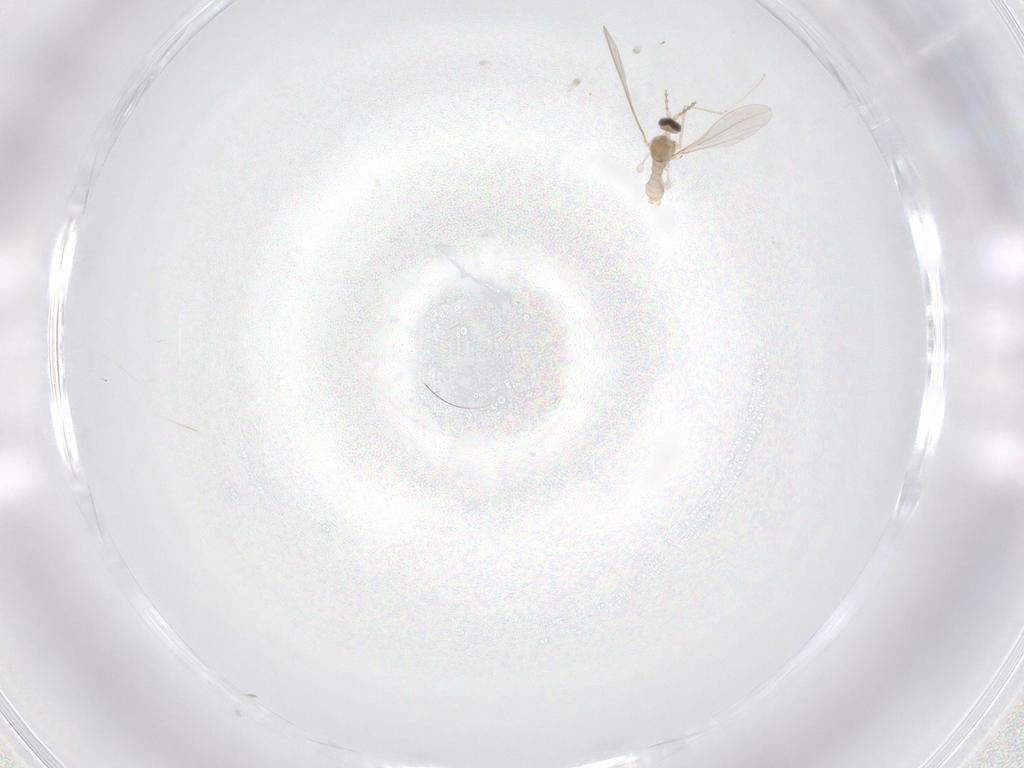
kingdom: Animalia
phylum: Arthropoda
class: Insecta
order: Diptera
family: Cecidomyiidae
